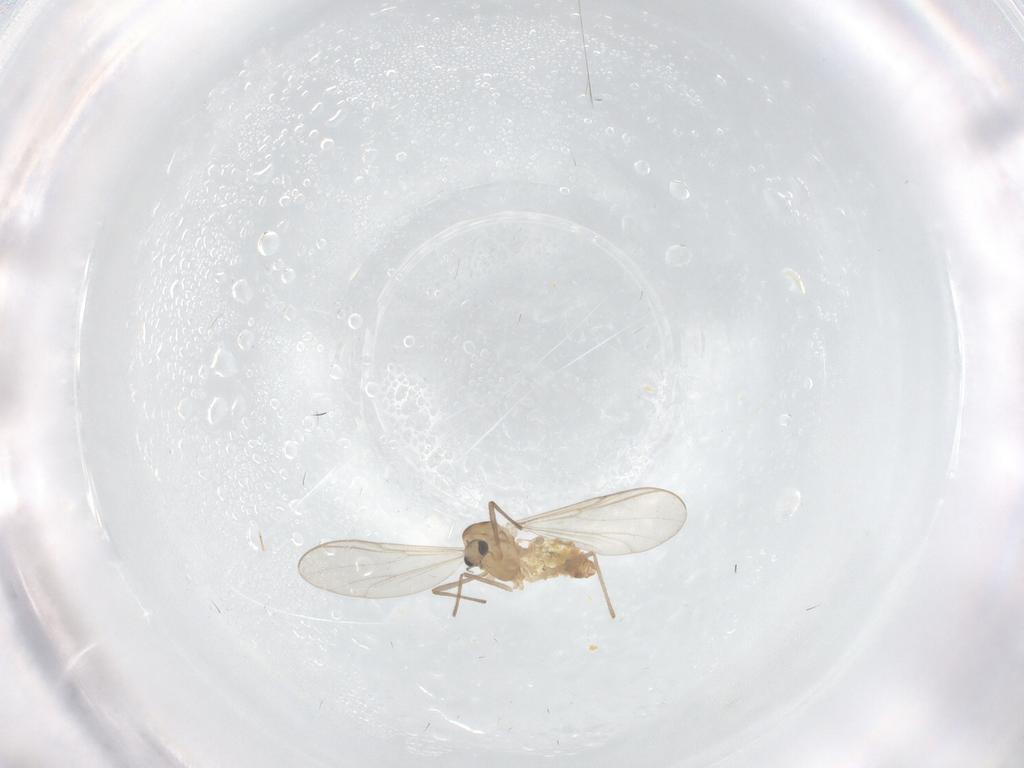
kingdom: Animalia
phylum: Arthropoda
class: Insecta
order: Diptera
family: Chironomidae
